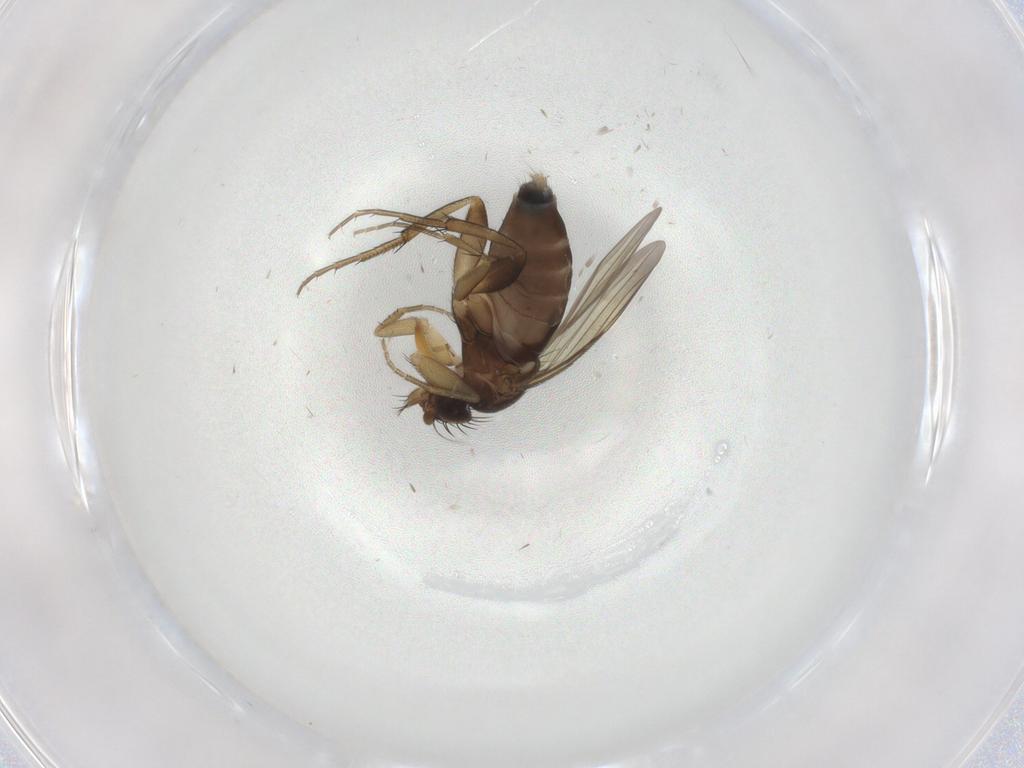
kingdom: Animalia
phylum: Arthropoda
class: Insecta
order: Diptera
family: Phoridae
